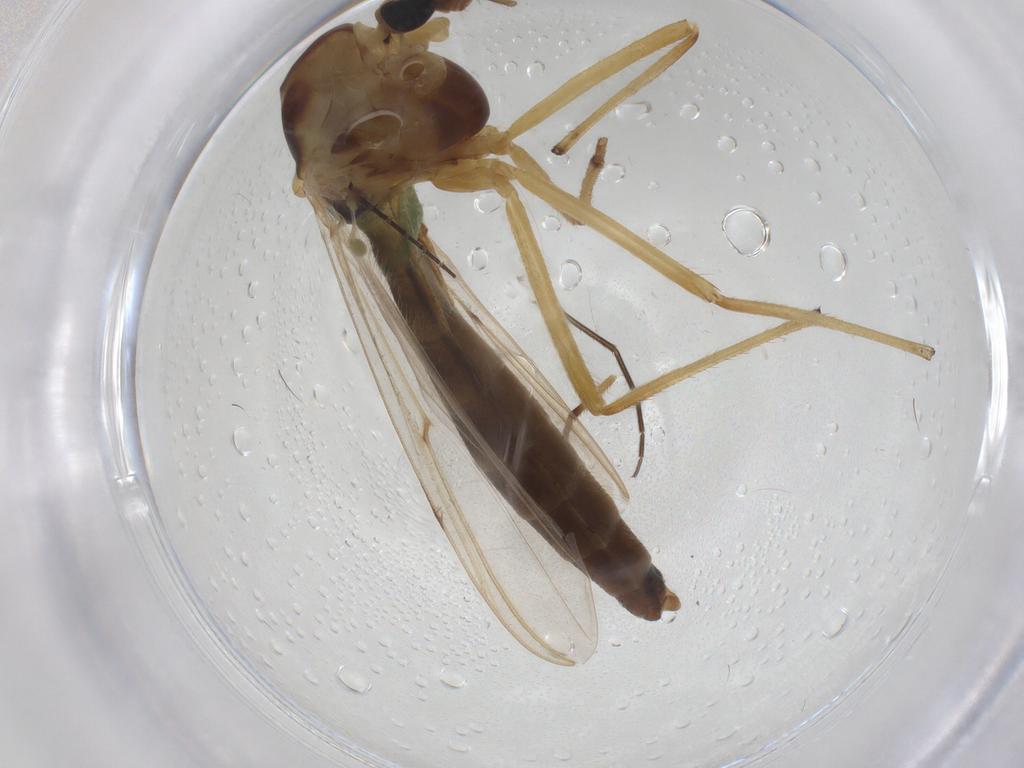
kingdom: Animalia
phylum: Arthropoda
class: Insecta
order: Diptera
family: Chironomidae
